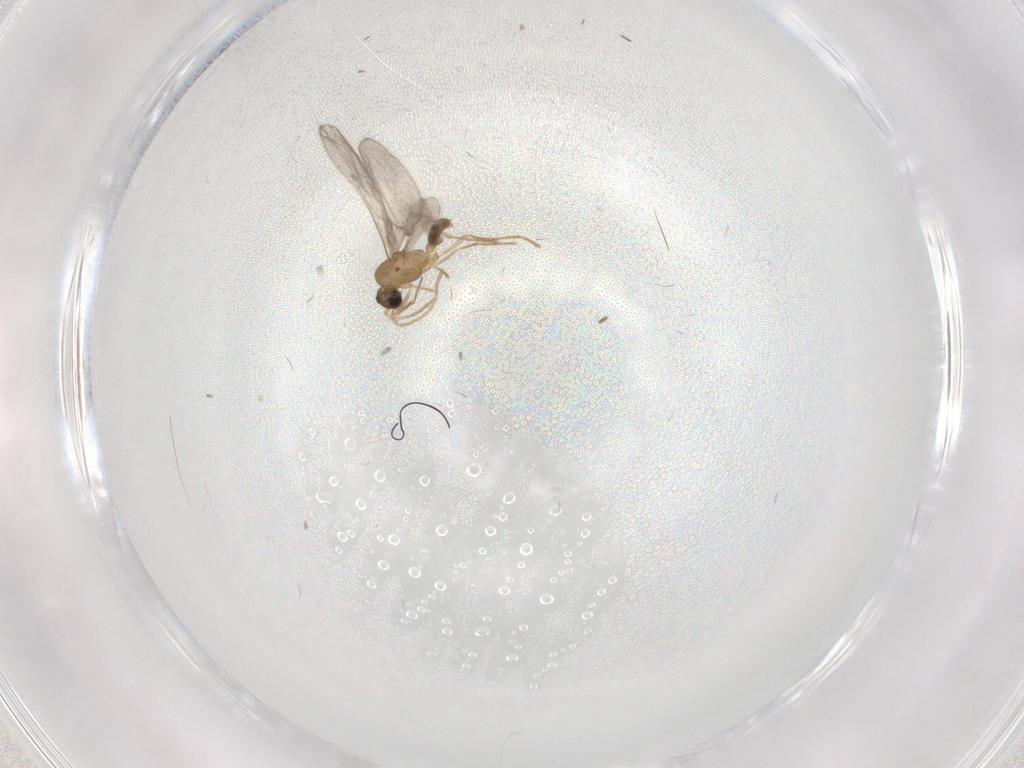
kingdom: Animalia
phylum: Arthropoda
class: Insecta
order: Hymenoptera
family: Formicidae
